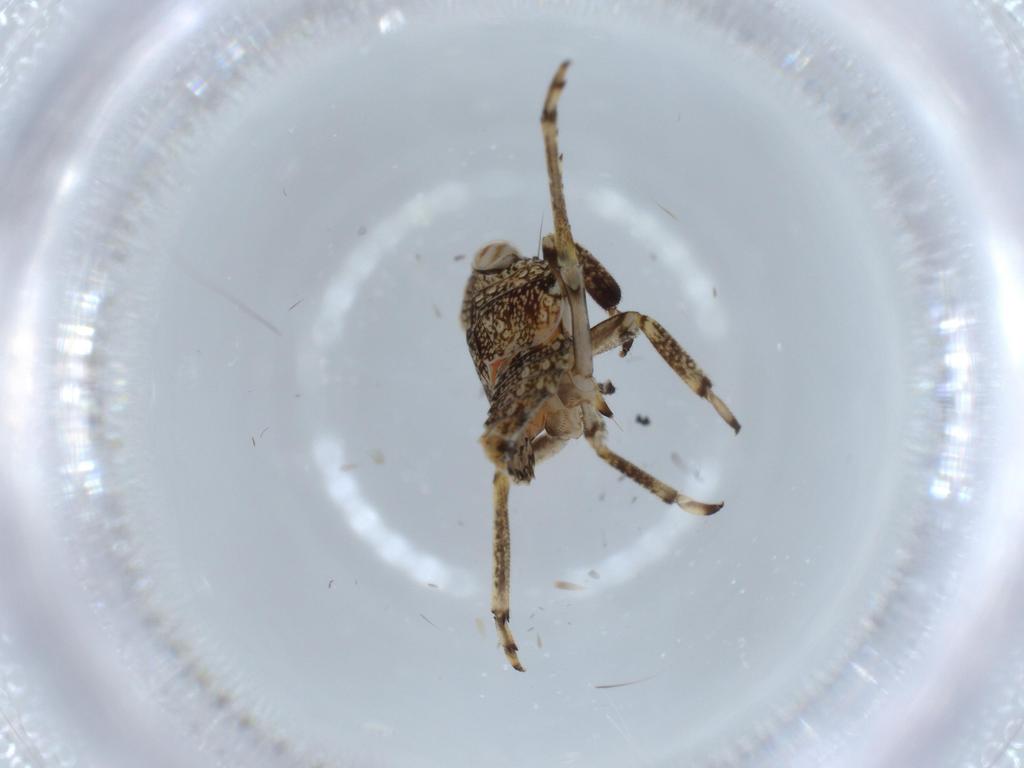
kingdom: Animalia
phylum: Arthropoda
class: Insecta
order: Hemiptera
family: Issidae
